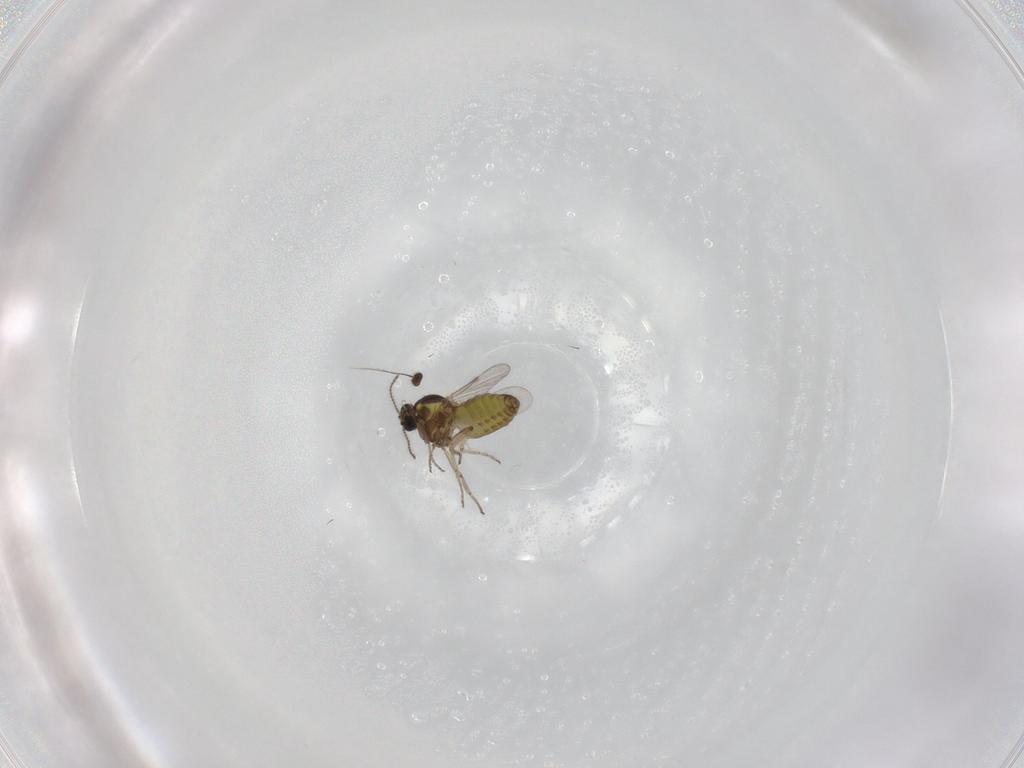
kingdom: Animalia
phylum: Arthropoda
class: Insecta
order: Diptera
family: Ceratopogonidae
